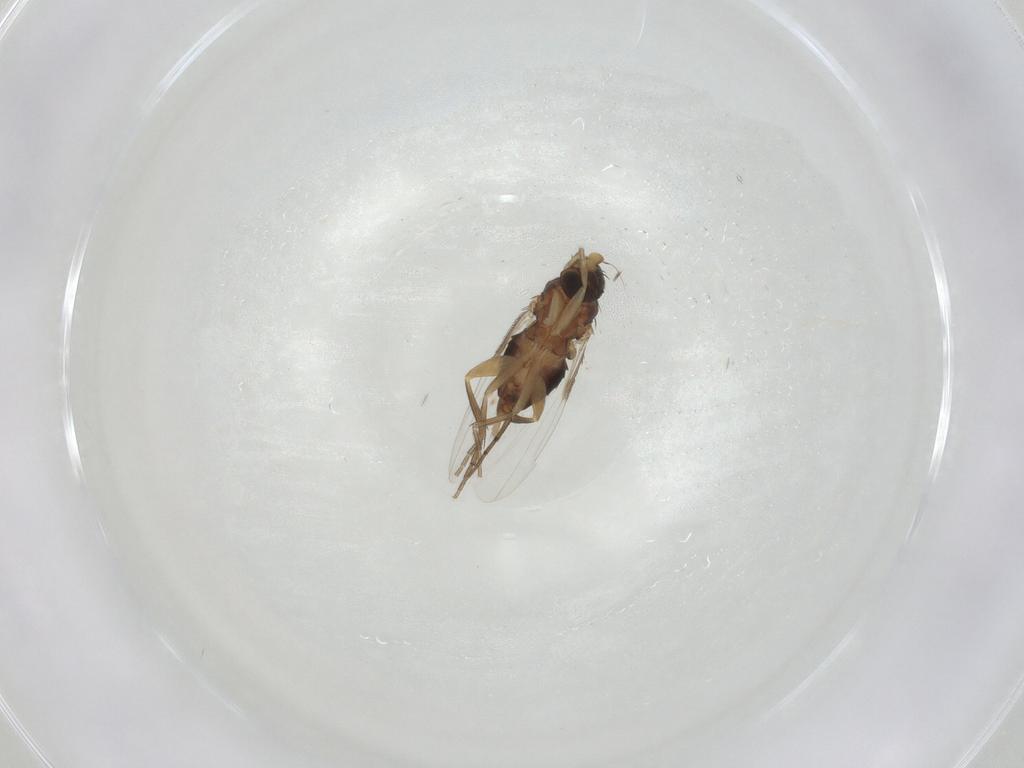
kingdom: Animalia
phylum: Arthropoda
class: Insecta
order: Diptera
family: Phoridae
